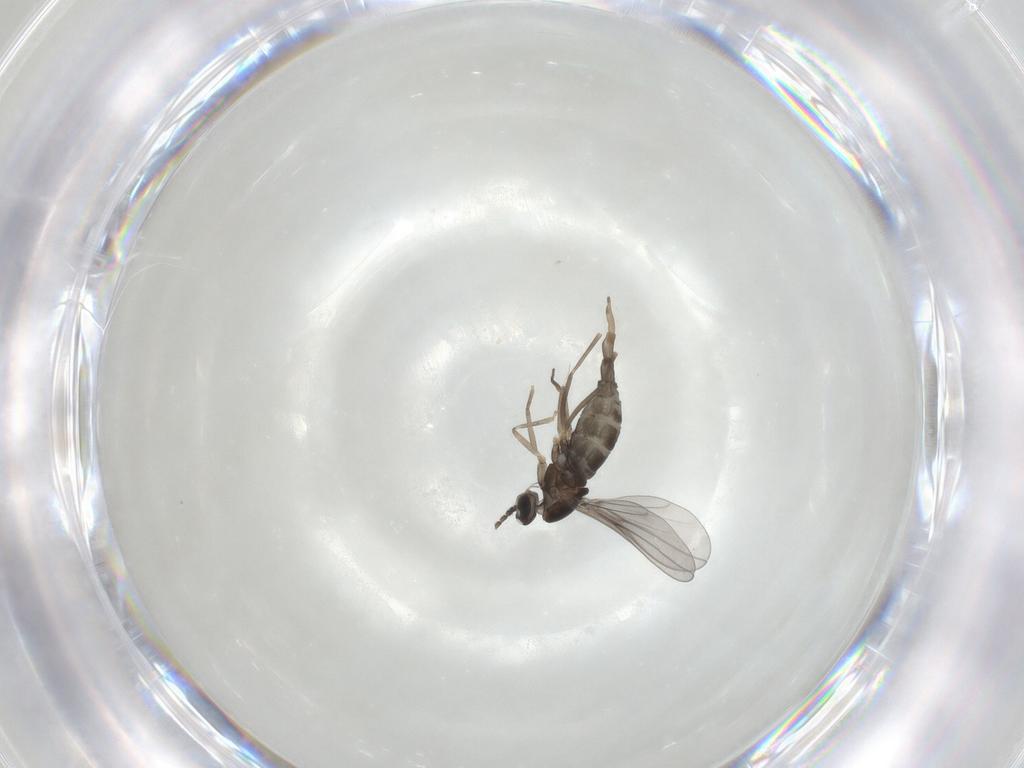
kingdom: Animalia
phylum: Arthropoda
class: Insecta
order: Diptera
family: Cecidomyiidae
